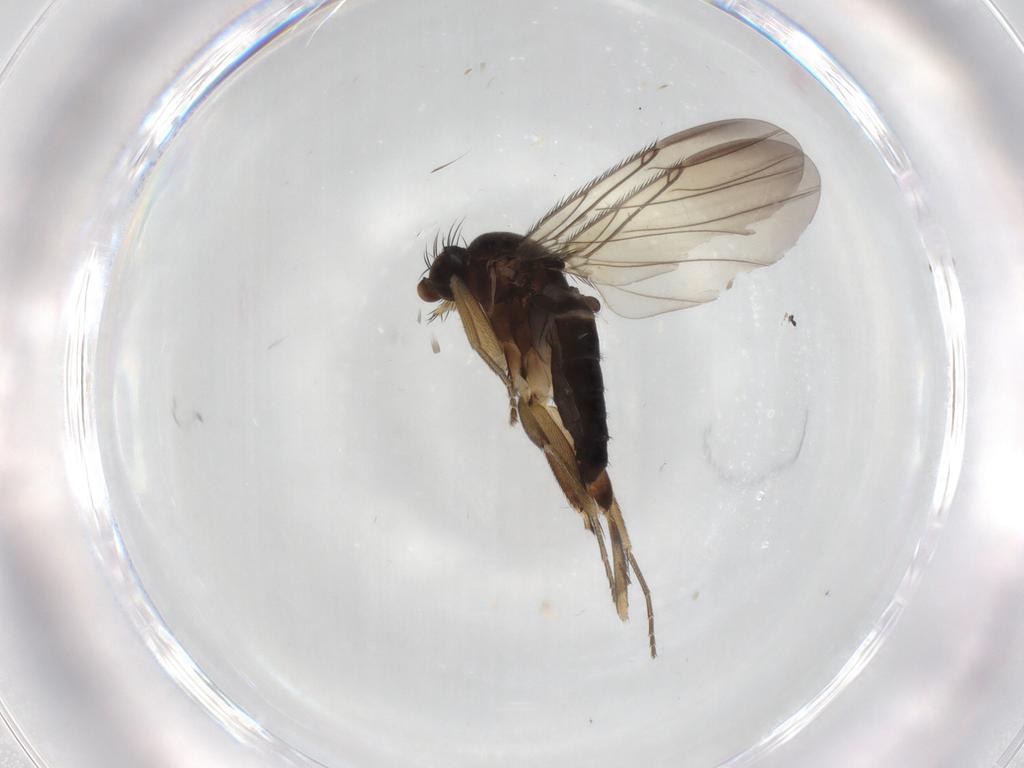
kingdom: Animalia
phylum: Arthropoda
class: Insecta
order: Diptera
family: Phoridae
